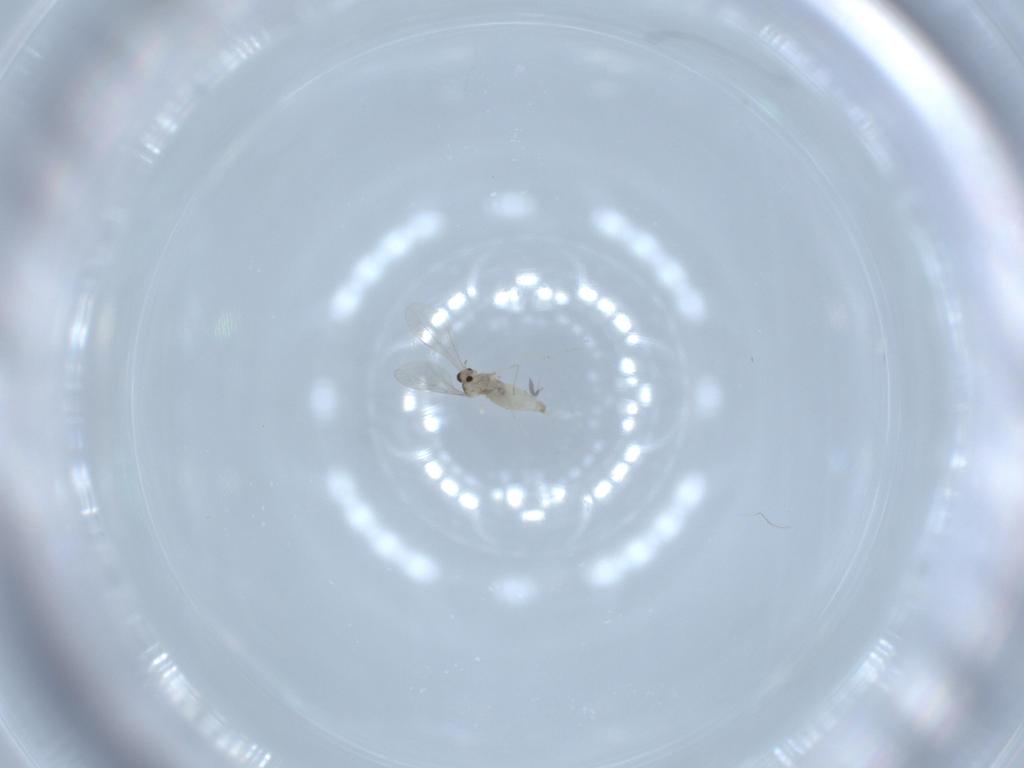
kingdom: Animalia
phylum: Arthropoda
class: Insecta
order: Diptera
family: Cecidomyiidae
